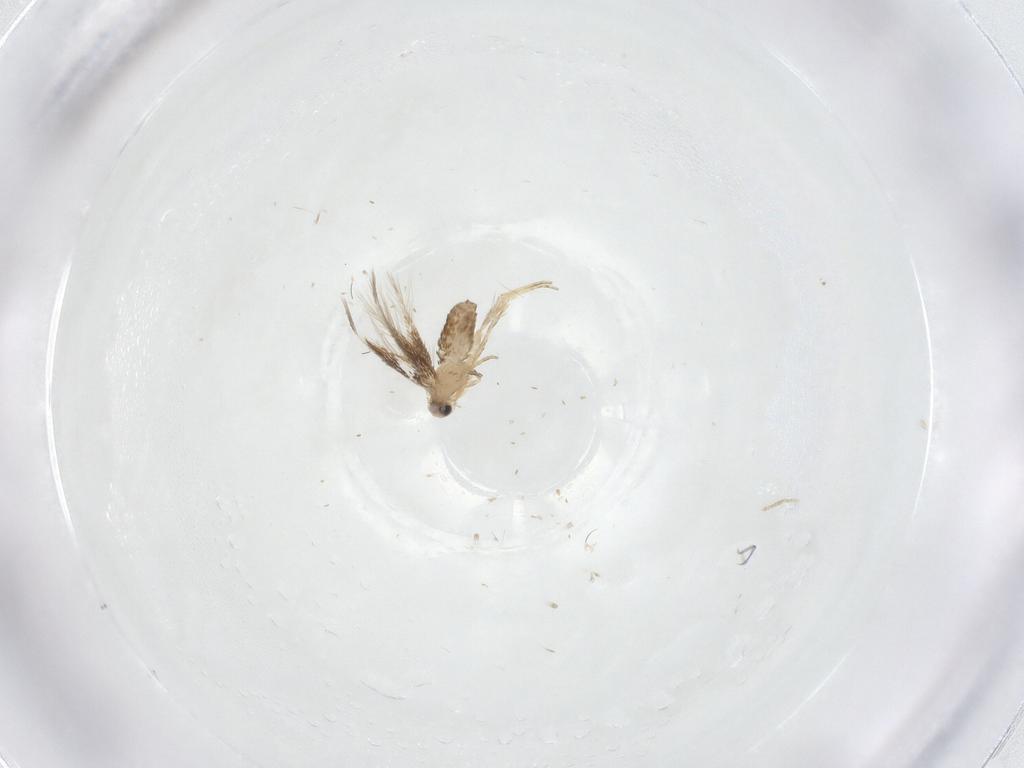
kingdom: Animalia
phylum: Arthropoda
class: Insecta
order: Lepidoptera
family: Nepticulidae
